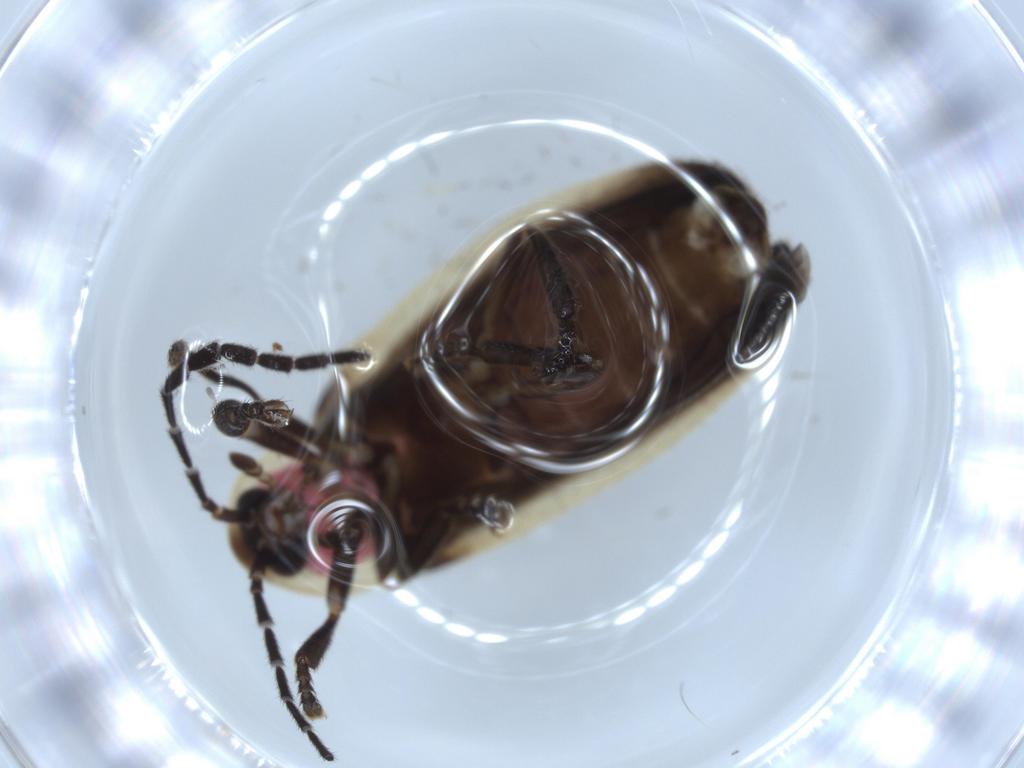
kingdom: Animalia
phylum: Arthropoda
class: Insecta
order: Coleoptera
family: Lampyridae
